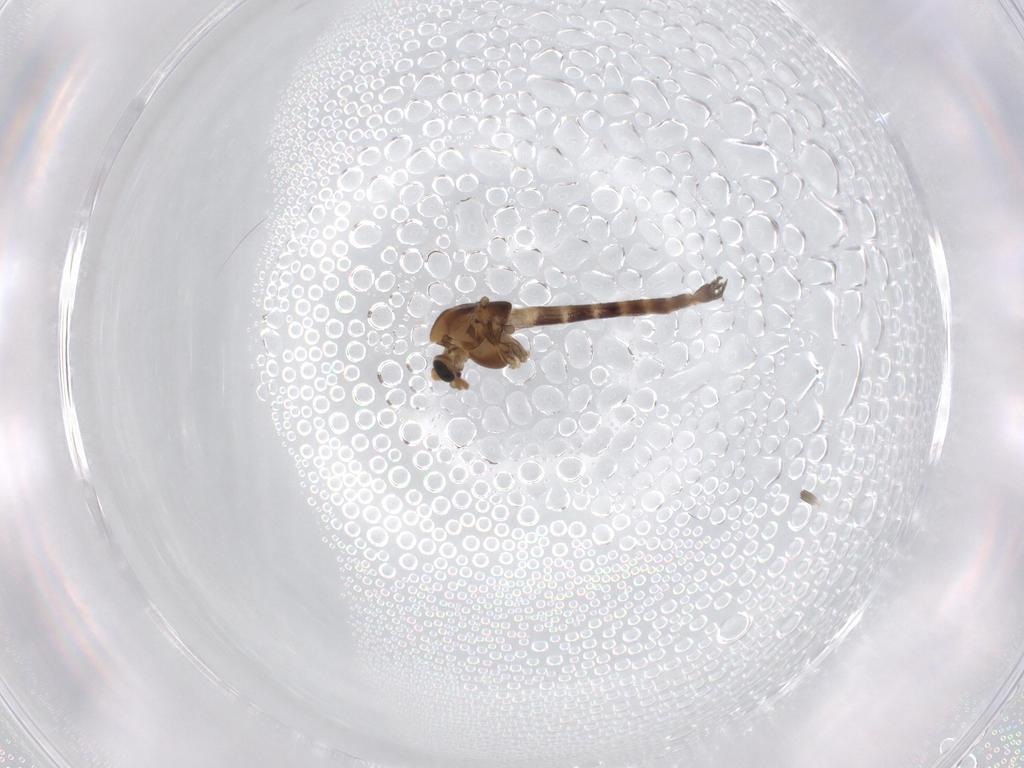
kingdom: Animalia
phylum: Arthropoda
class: Insecta
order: Diptera
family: Chironomidae
